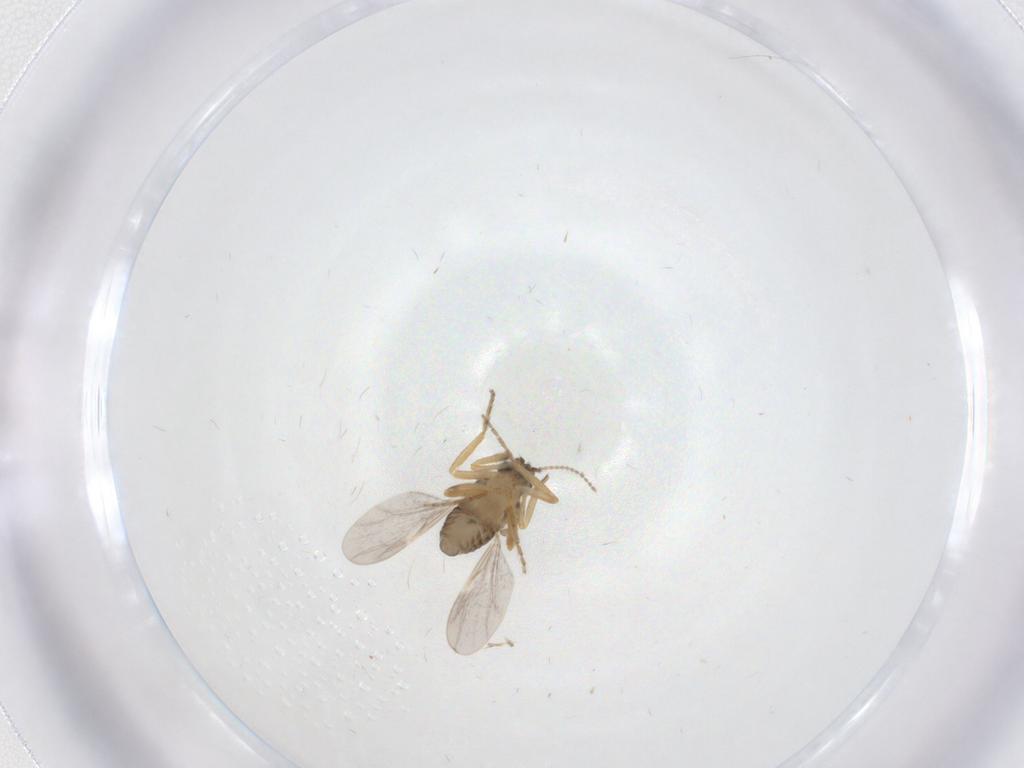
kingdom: Animalia
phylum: Arthropoda
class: Insecta
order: Diptera
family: Ceratopogonidae
